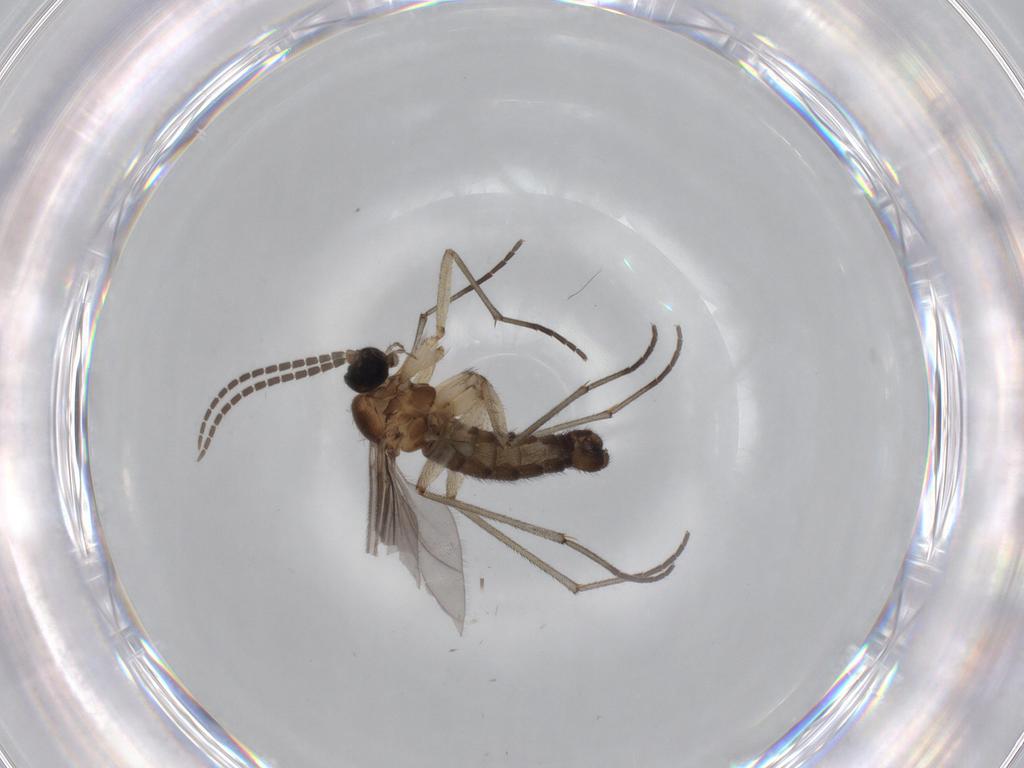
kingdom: Animalia
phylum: Arthropoda
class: Insecta
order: Diptera
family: Sciaridae
